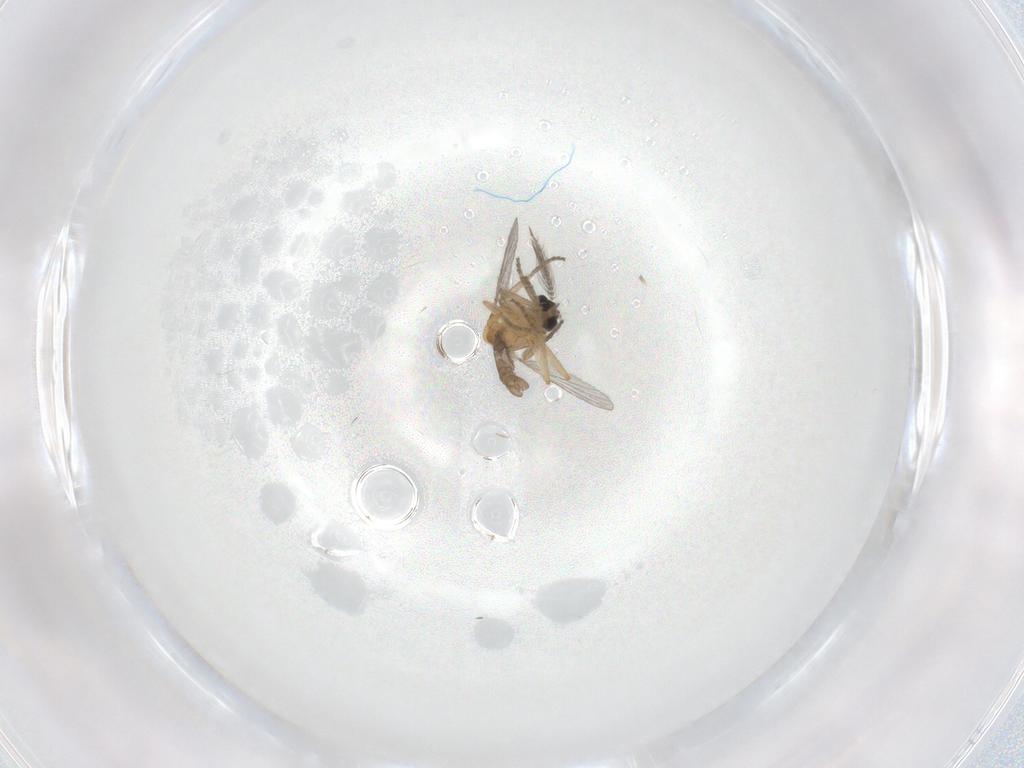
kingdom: Animalia
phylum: Arthropoda
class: Insecta
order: Diptera
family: Ceratopogonidae
